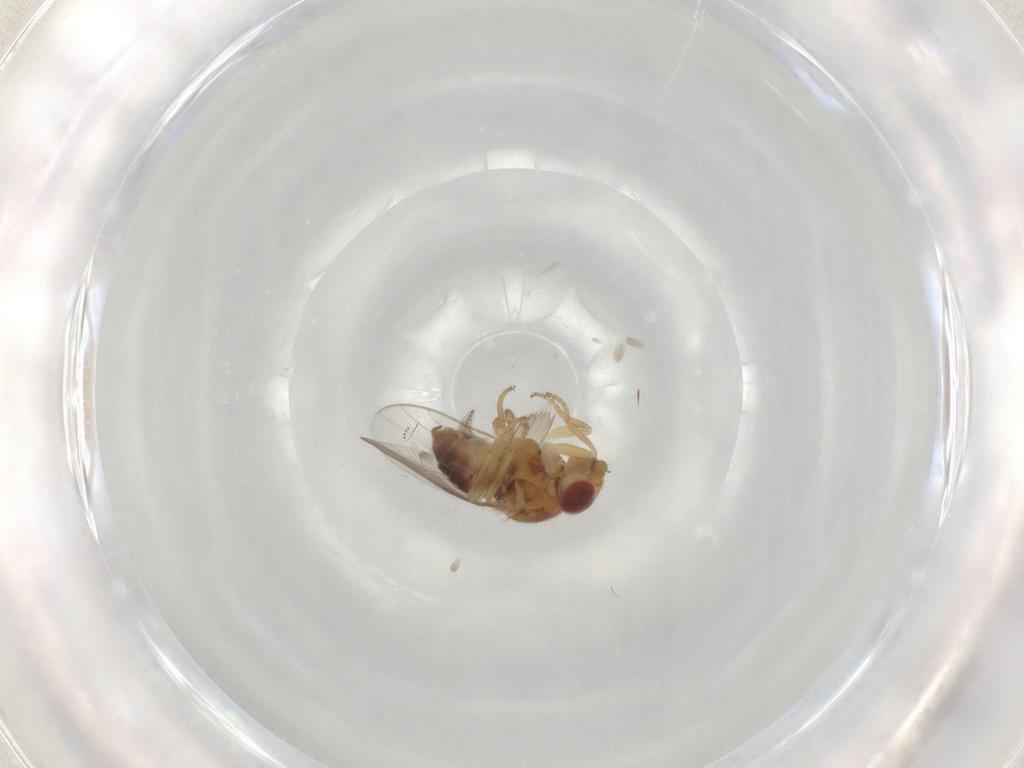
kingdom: Animalia
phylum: Arthropoda
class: Insecta
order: Diptera
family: Chloropidae
